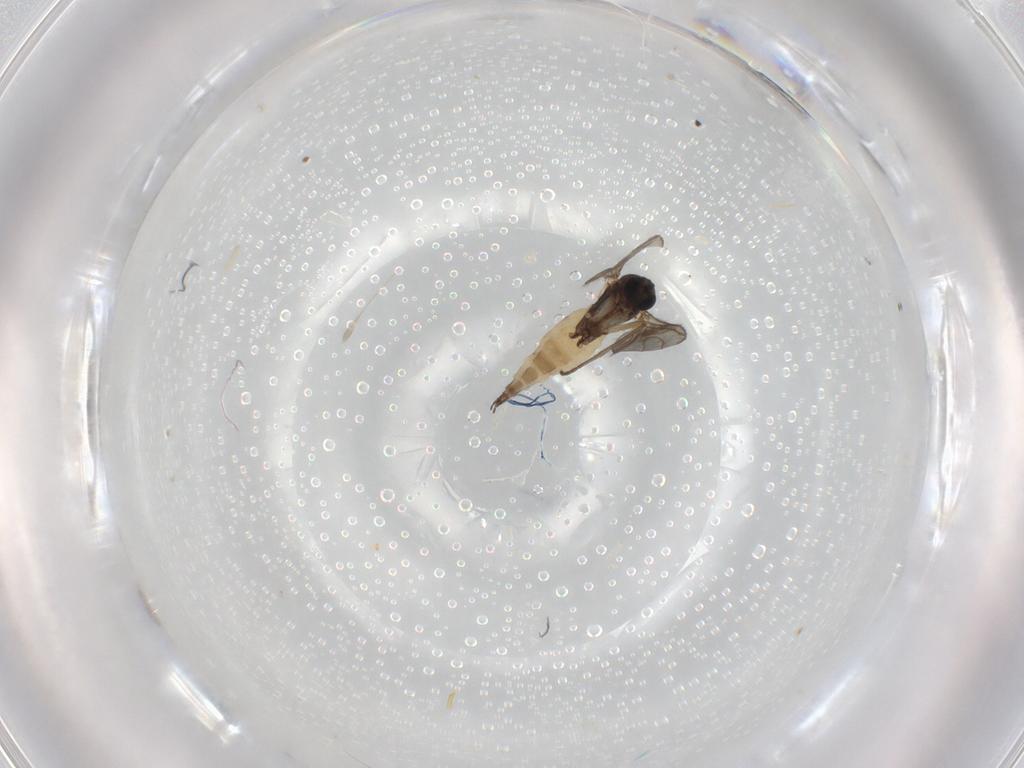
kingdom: Animalia
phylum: Arthropoda
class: Insecta
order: Diptera
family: Sciaridae
